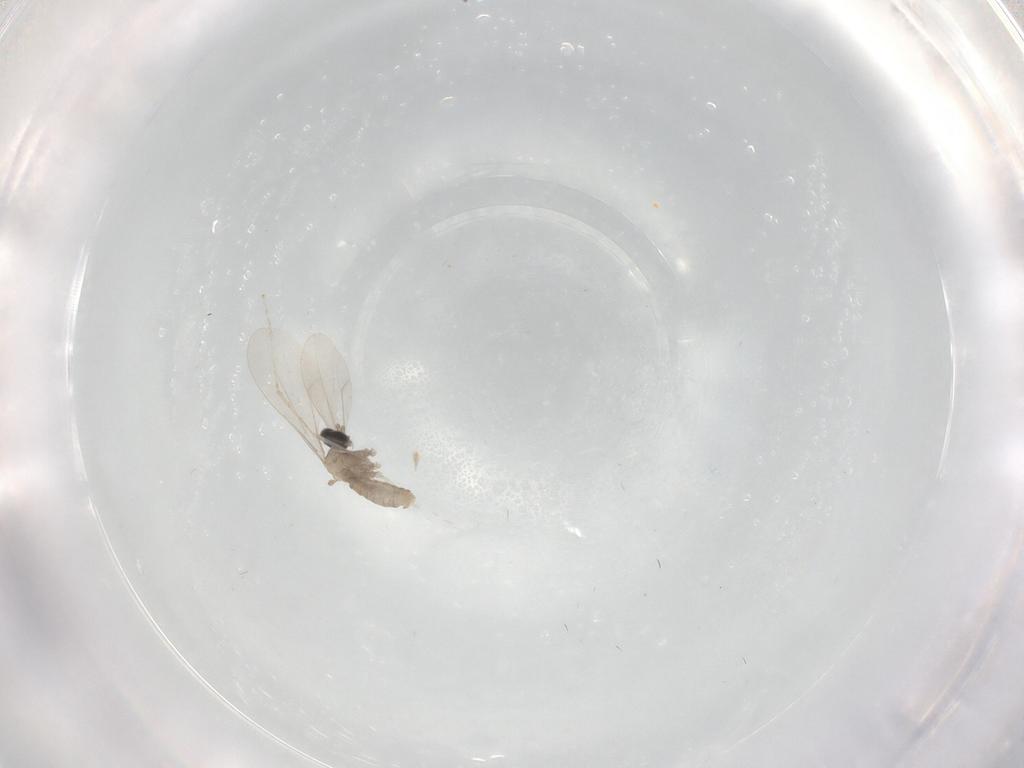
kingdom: Animalia
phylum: Arthropoda
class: Insecta
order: Diptera
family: Cecidomyiidae
